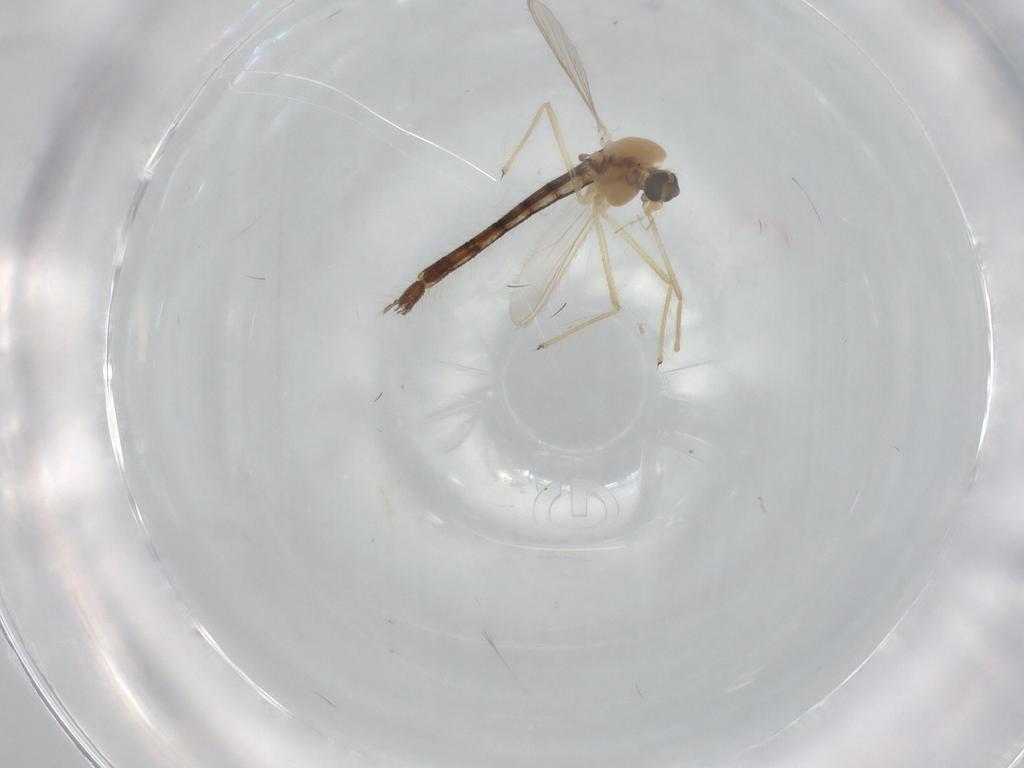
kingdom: Animalia
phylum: Arthropoda
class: Insecta
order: Diptera
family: Chironomidae
